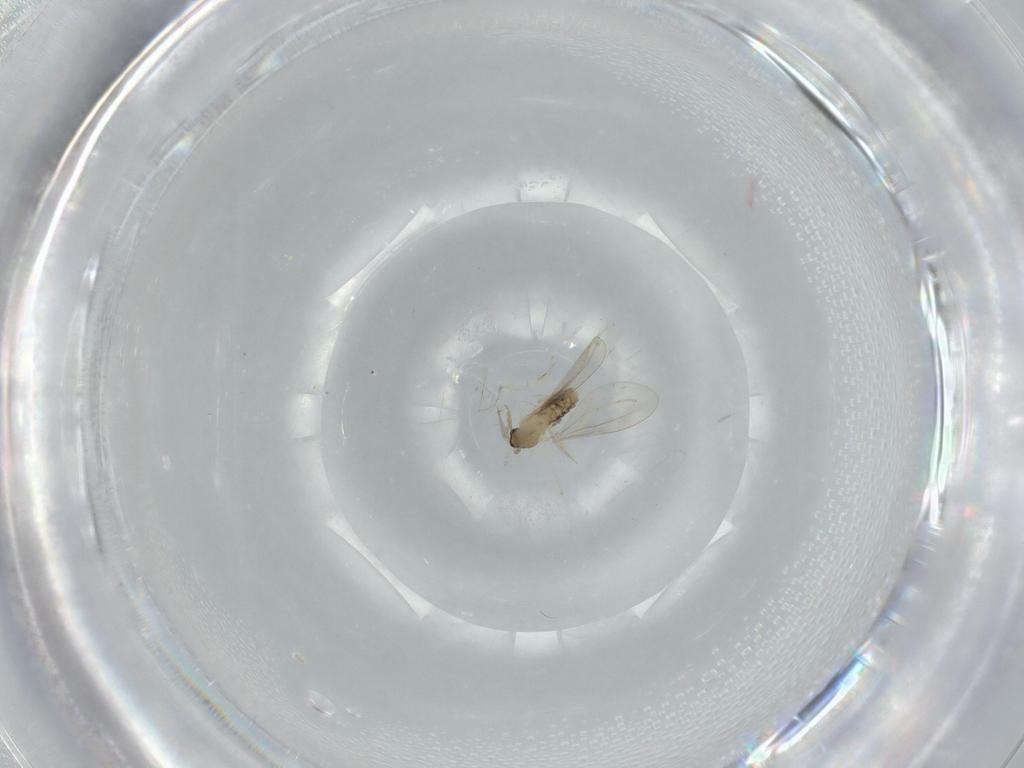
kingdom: Animalia
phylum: Arthropoda
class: Insecta
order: Diptera
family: Cecidomyiidae
